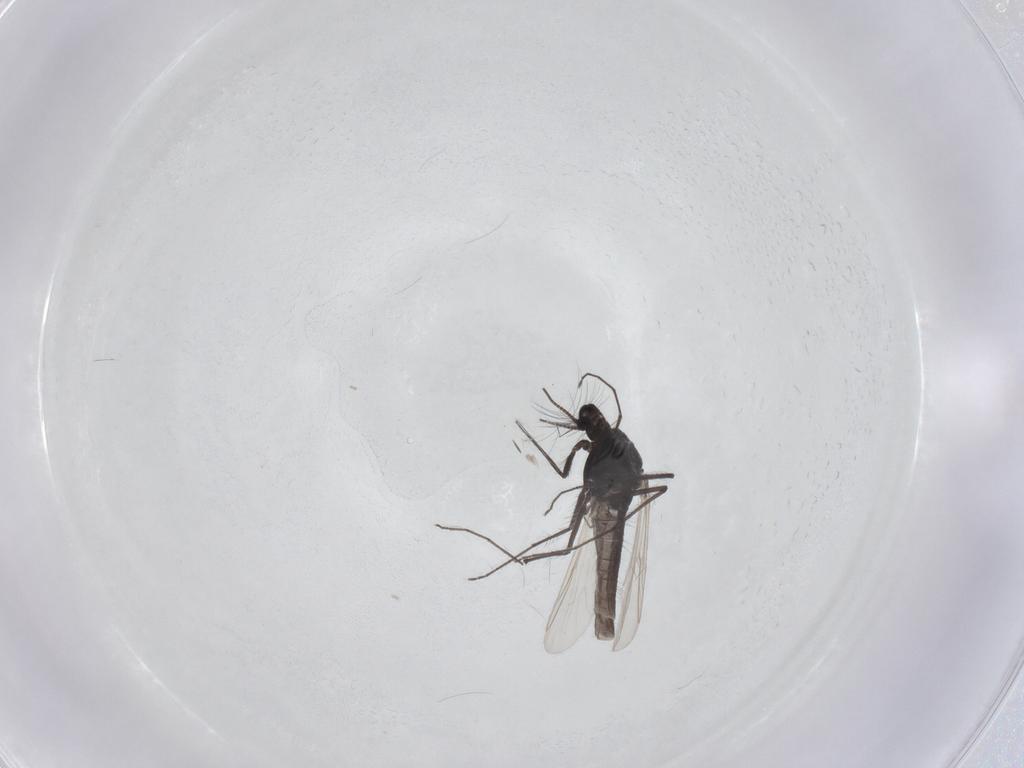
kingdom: Animalia
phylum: Arthropoda
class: Insecta
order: Diptera
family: Chironomidae
